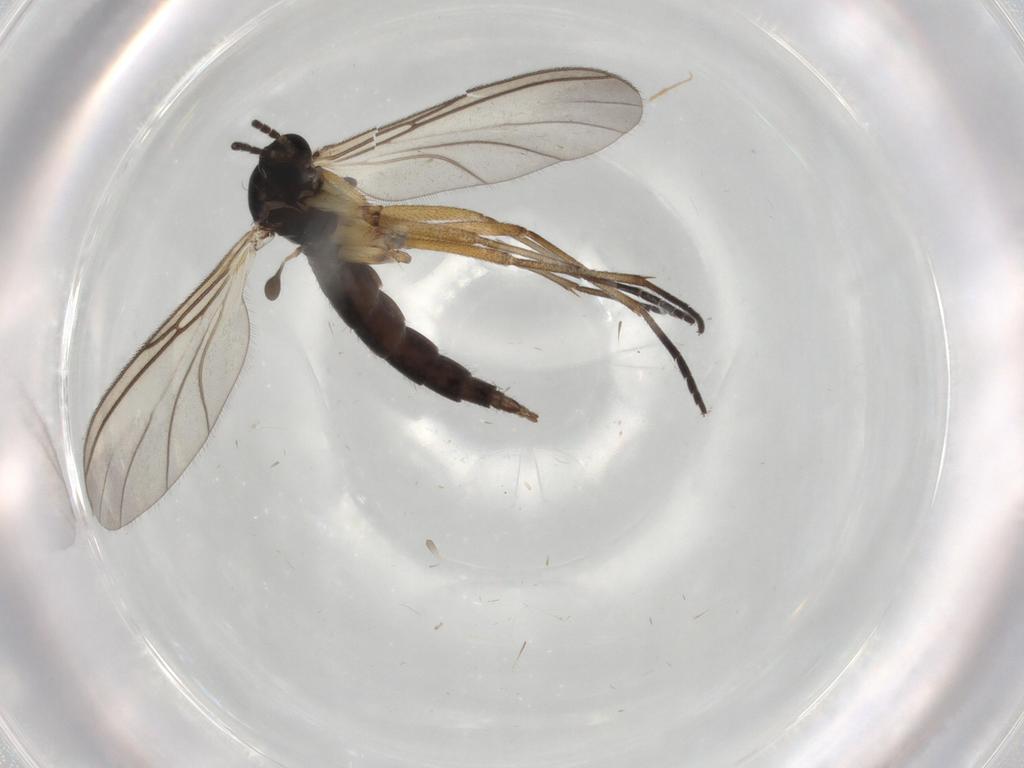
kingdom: Animalia
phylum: Arthropoda
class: Insecta
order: Diptera
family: Sciaridae
